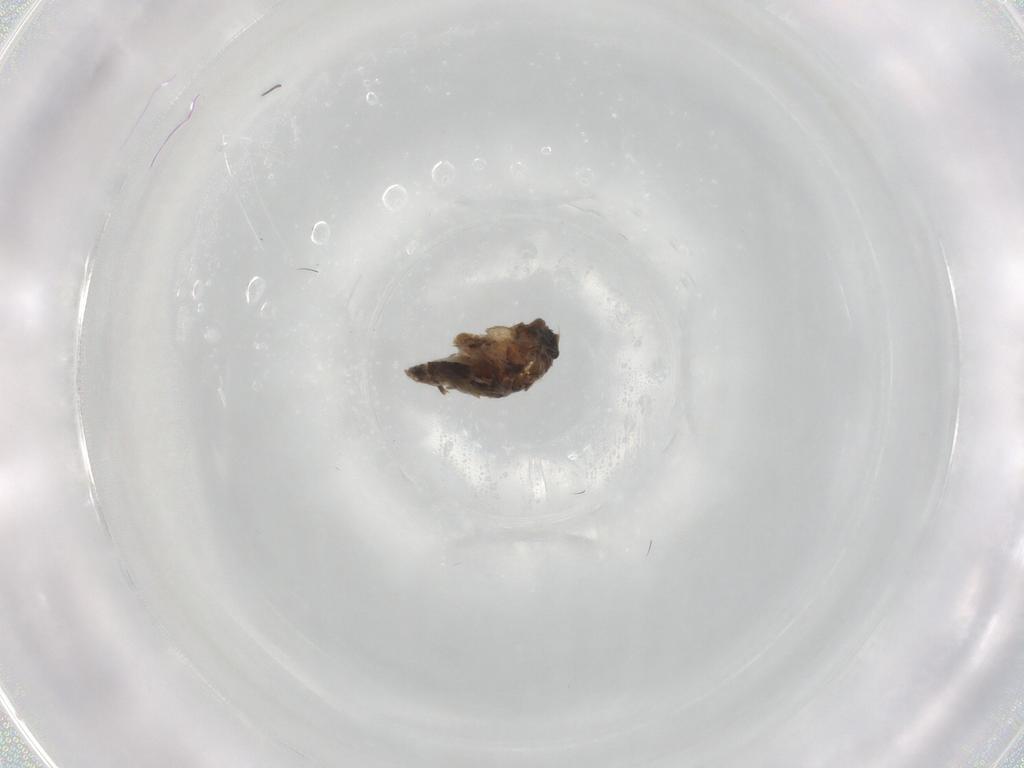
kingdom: Animalia
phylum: Arthropoda
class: Insecta
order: Diptera
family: Phoridae
